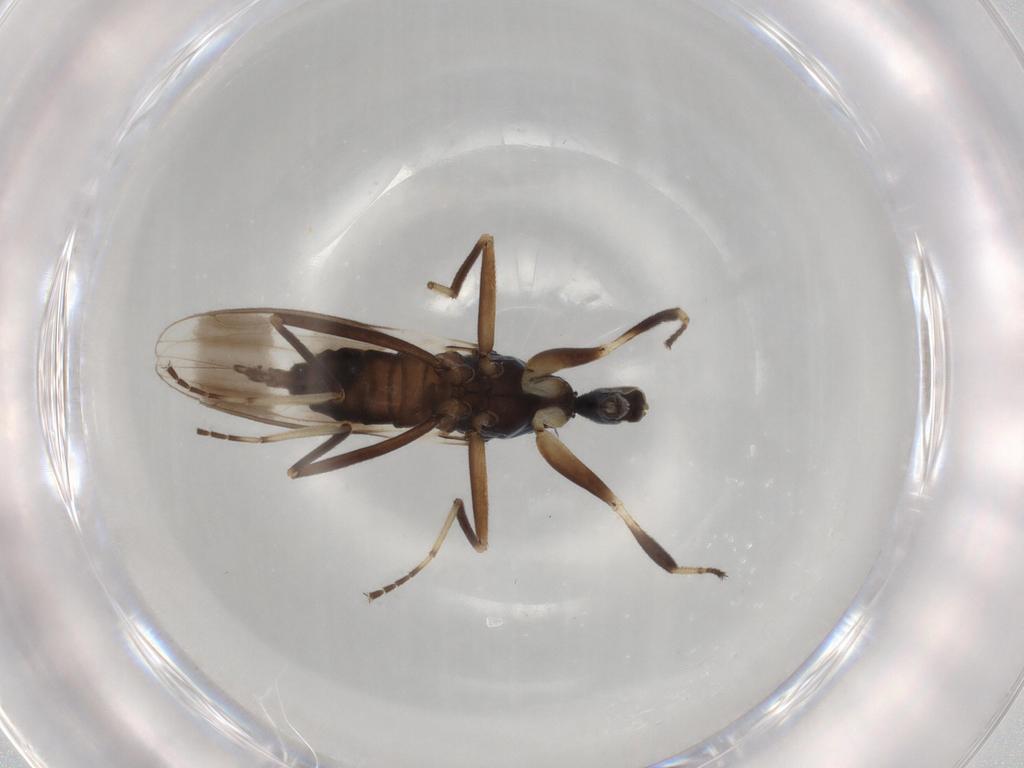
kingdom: Animalia
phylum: Arthropoda
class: Insecta
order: Diptera
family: Hybotidae
